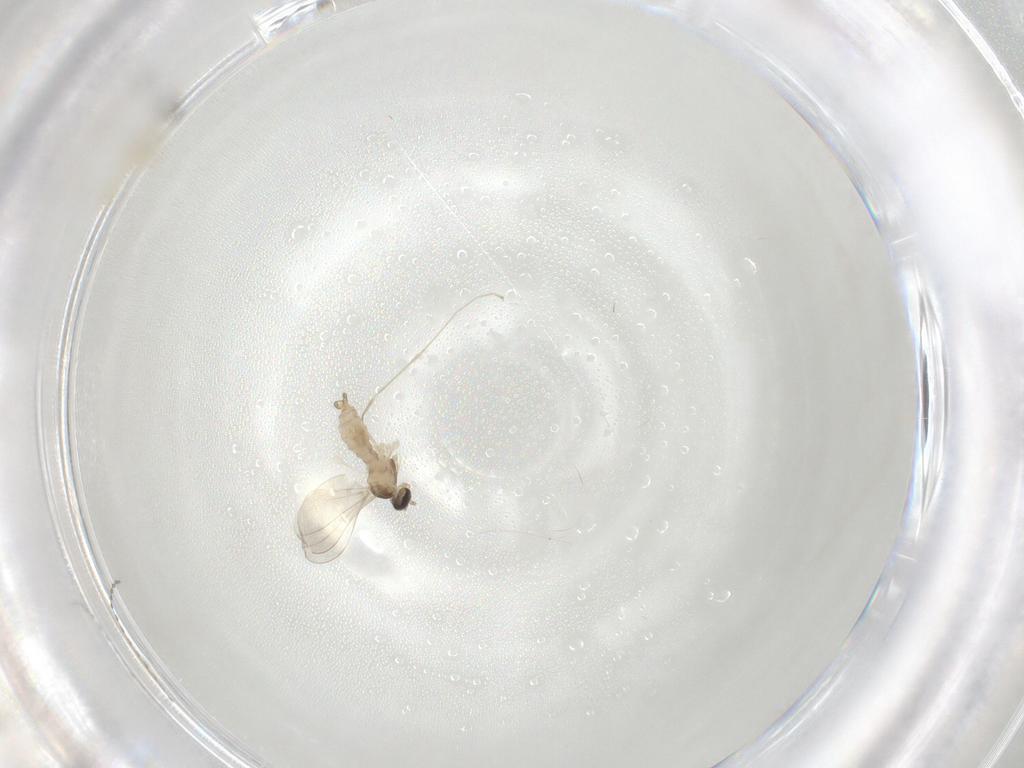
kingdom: Animalia
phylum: Arthropoda
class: Insecta
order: Diptera
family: Cecidomyiidae
